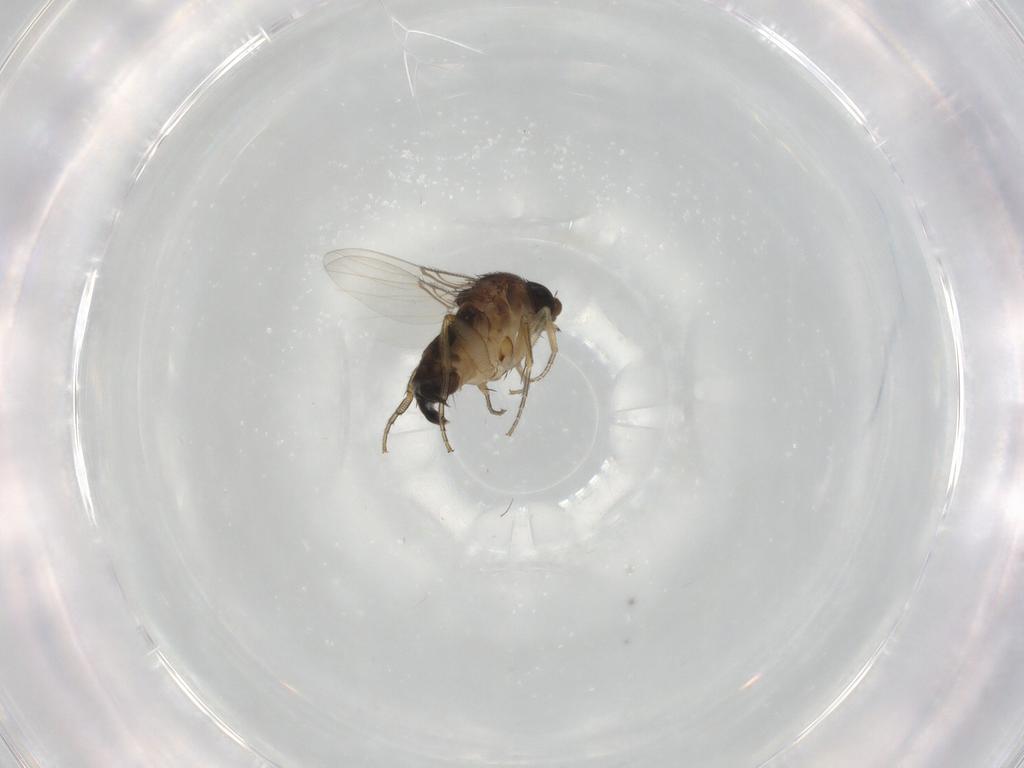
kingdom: Animalia
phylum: Arthropoda
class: Insecta
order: Diptera
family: Phoridae
